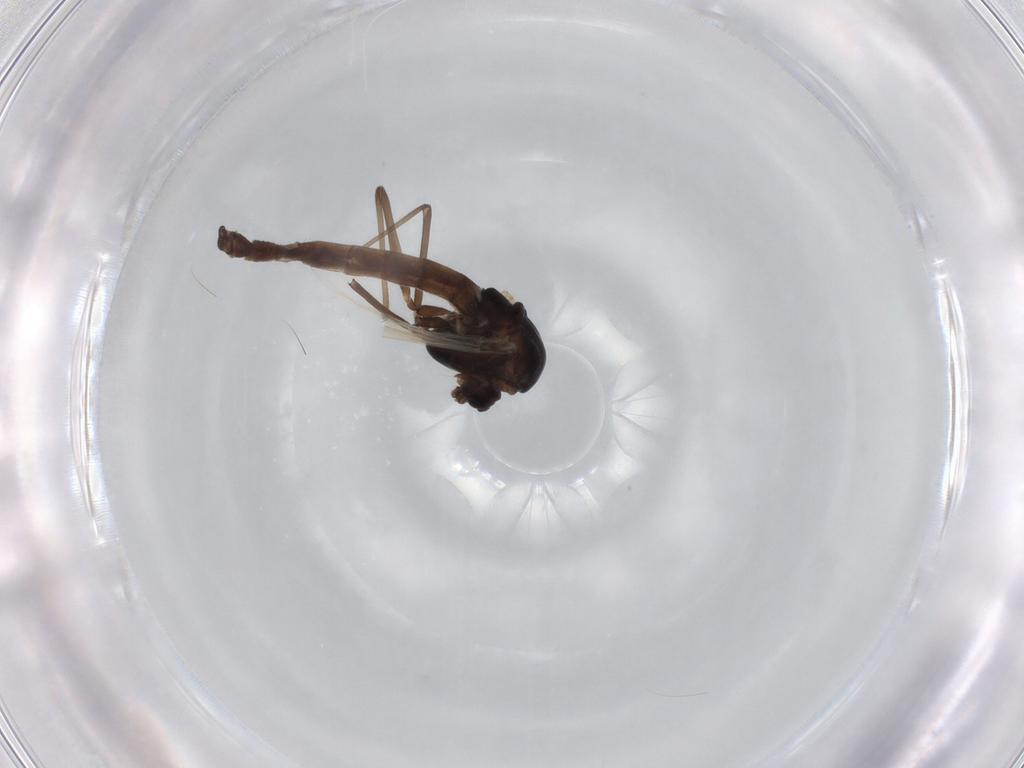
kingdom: Animalia
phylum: Arthropoda
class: Insecta
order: Diptera
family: Chironomidae
